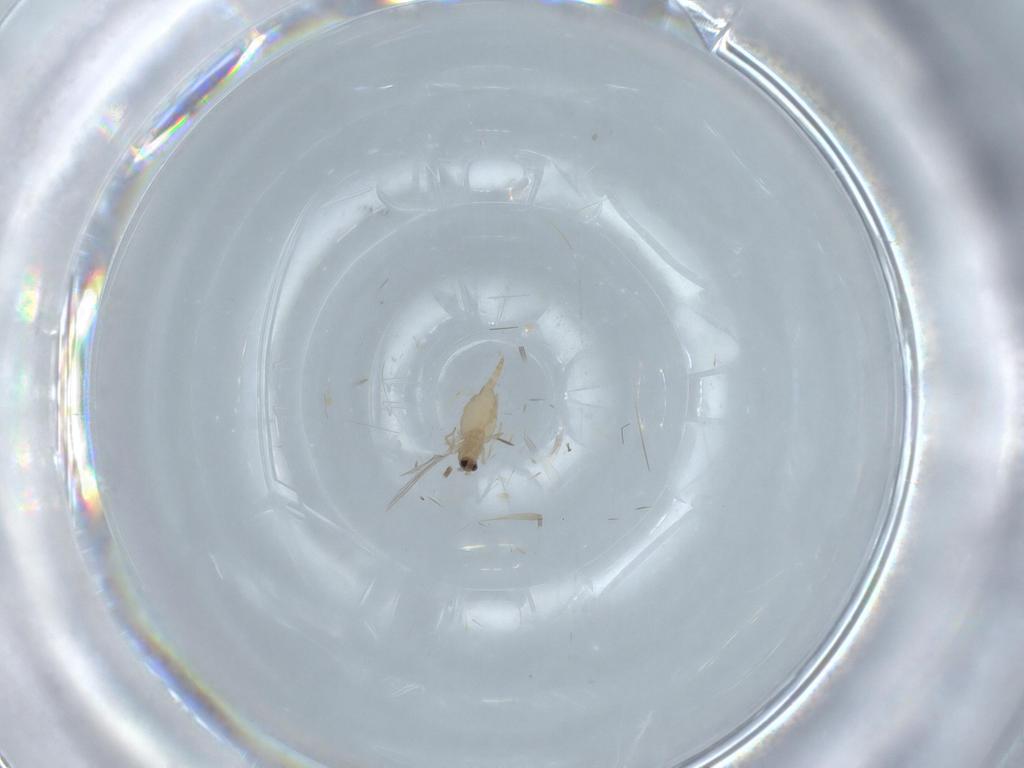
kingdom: Animalia
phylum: Arthropoda
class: Insecta
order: Diptera
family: Cecidomyiidae
